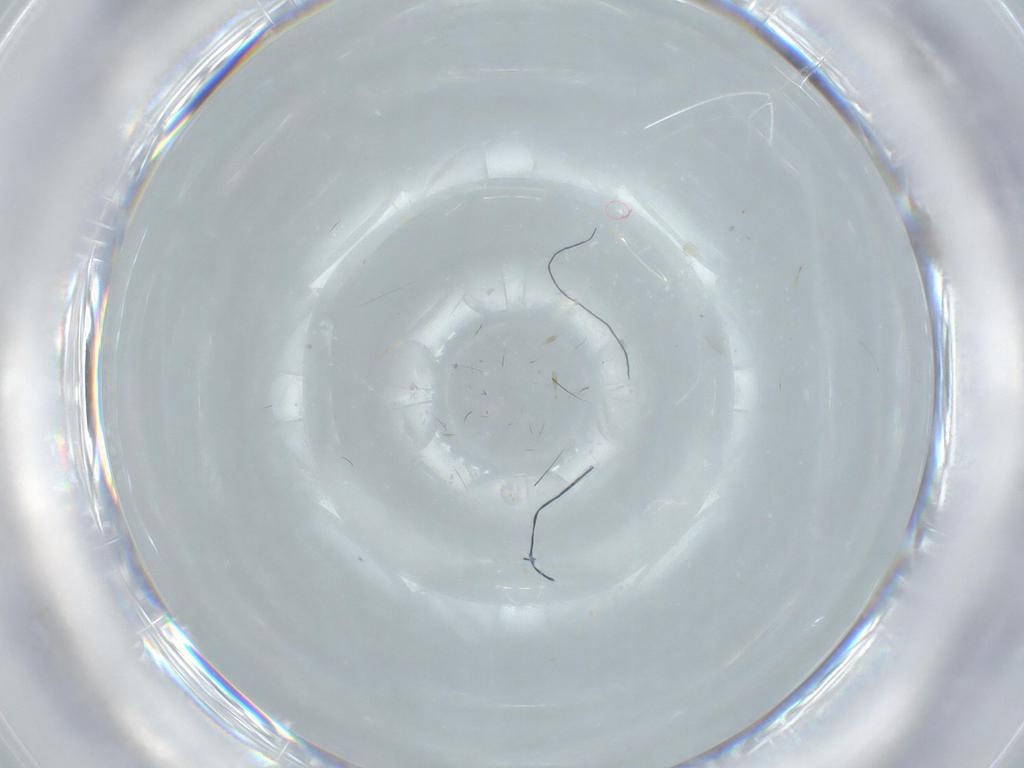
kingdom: Animalia
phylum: Arthropoda
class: Insecta
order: Diptera
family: Cecidomyiidae
